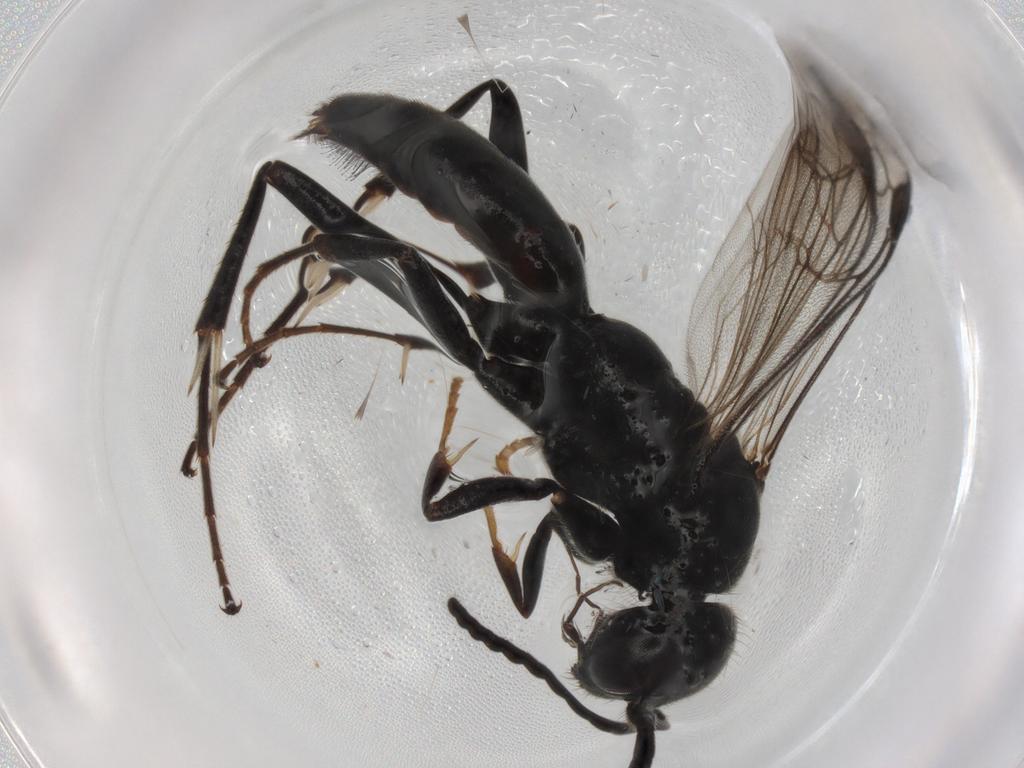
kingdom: Animalia
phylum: Arthropoda
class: Insecta
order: Hymenoptera
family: Pompilidae
